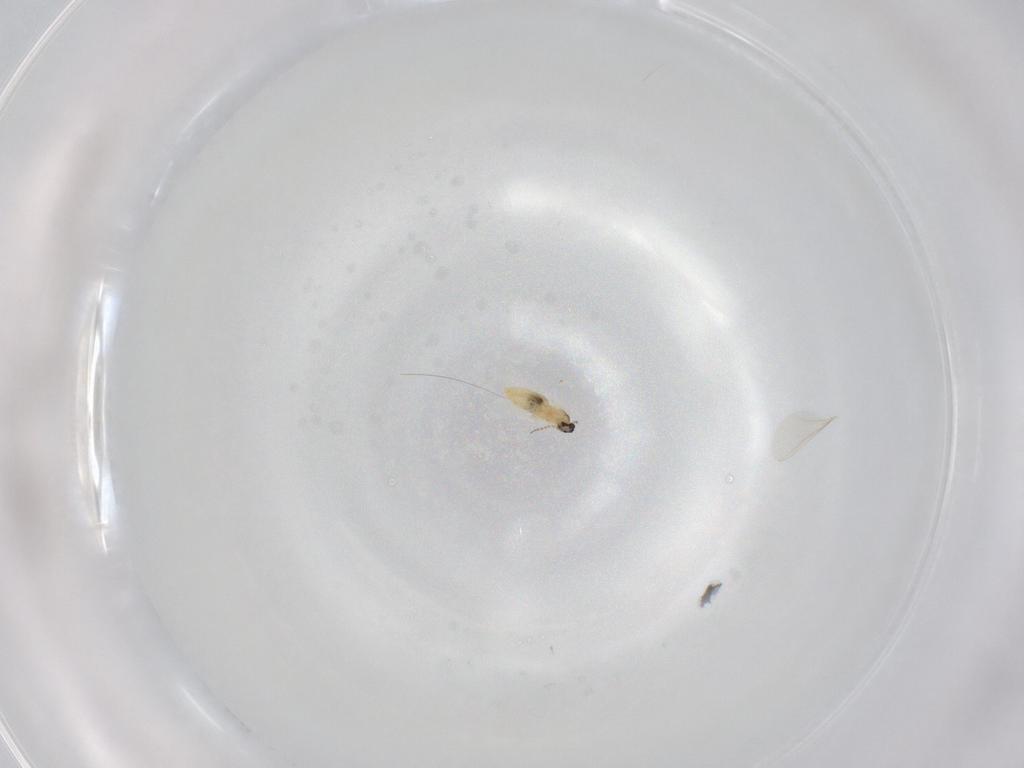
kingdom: Animalia
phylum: Arthropoda
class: Insecta
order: Diptera
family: Cecidomyiidae
